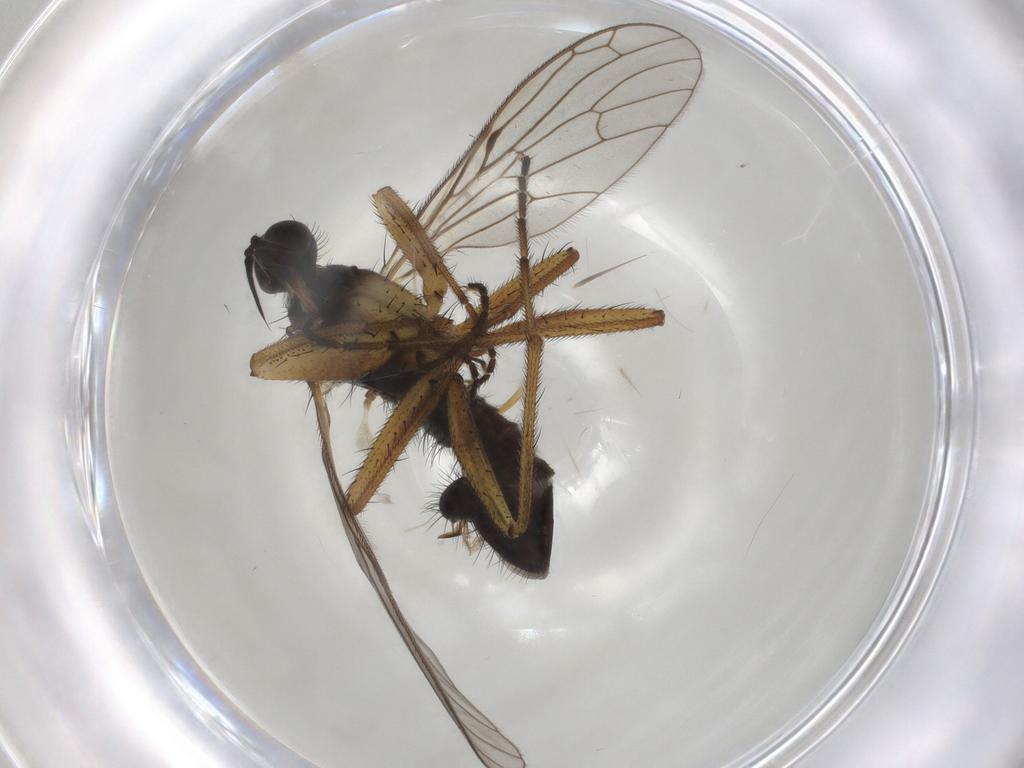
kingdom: Animalia
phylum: Arthropoda
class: Insecta
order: Diptera
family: Empididae
